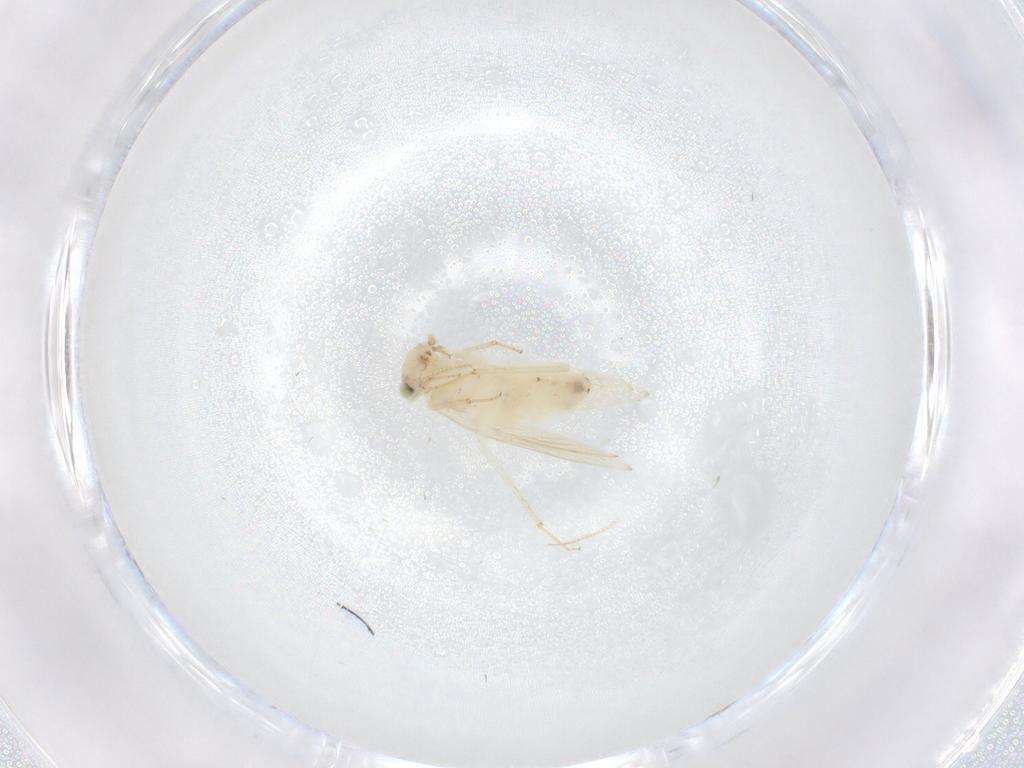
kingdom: Animalia
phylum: Arthropoda
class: Insecta
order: Psocodea
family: Lepidopsocidae
